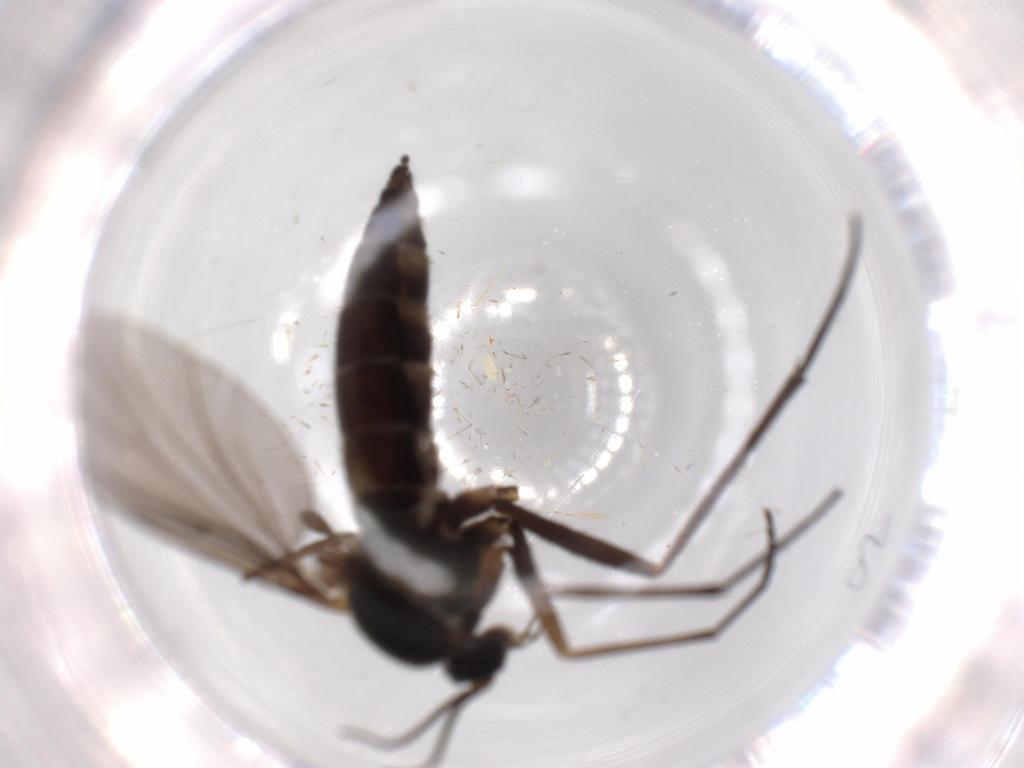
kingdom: Animalia
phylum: Arthropoda
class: Insecta
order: Diptera
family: Sciaridae
